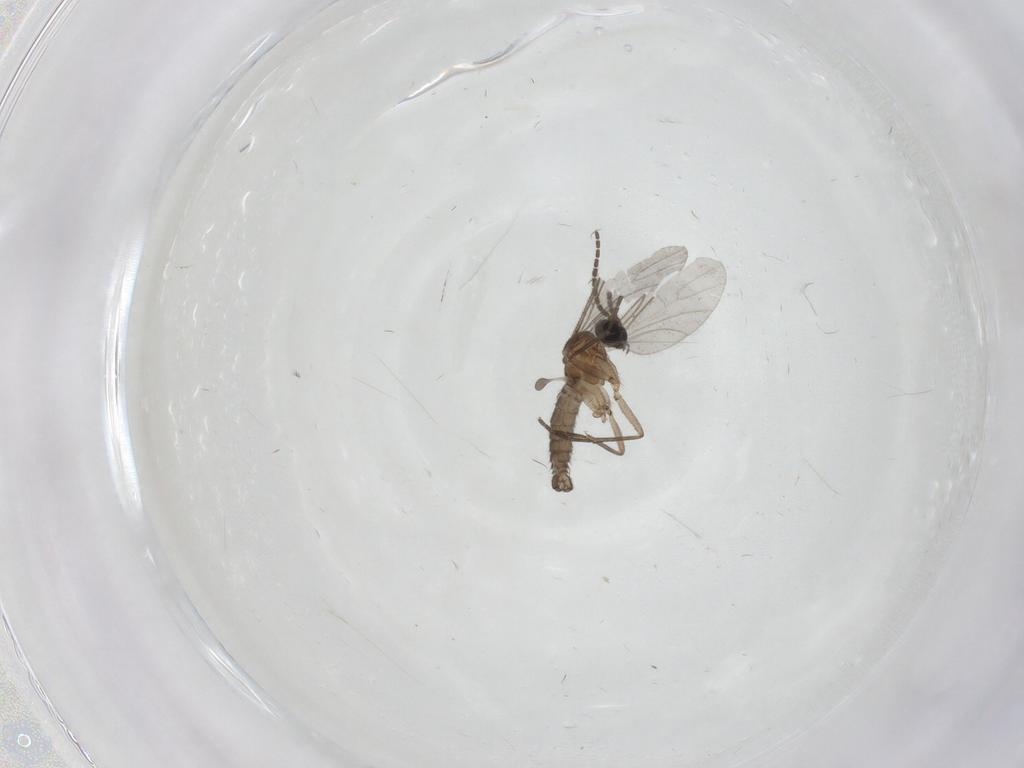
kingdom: Animalia
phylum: Arthropoda
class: Insecta
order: Diptera
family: Sciaridae
